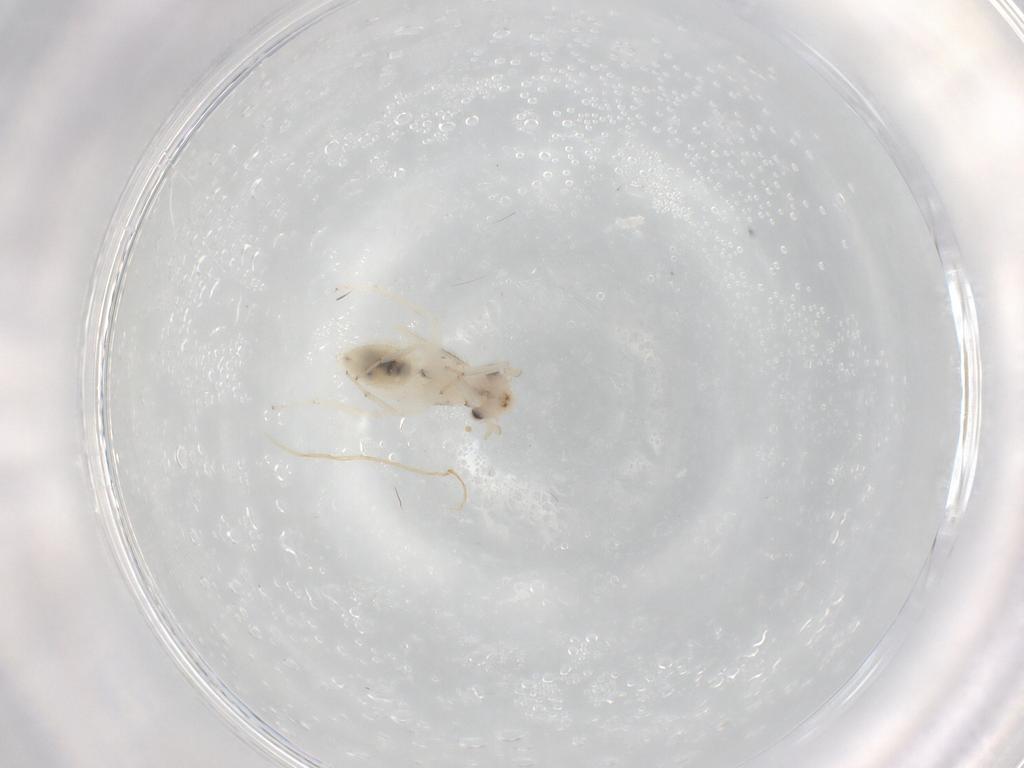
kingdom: Animalia
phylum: Arthropoda
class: Insecta
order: Psocodea
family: Lepidopsocidae
